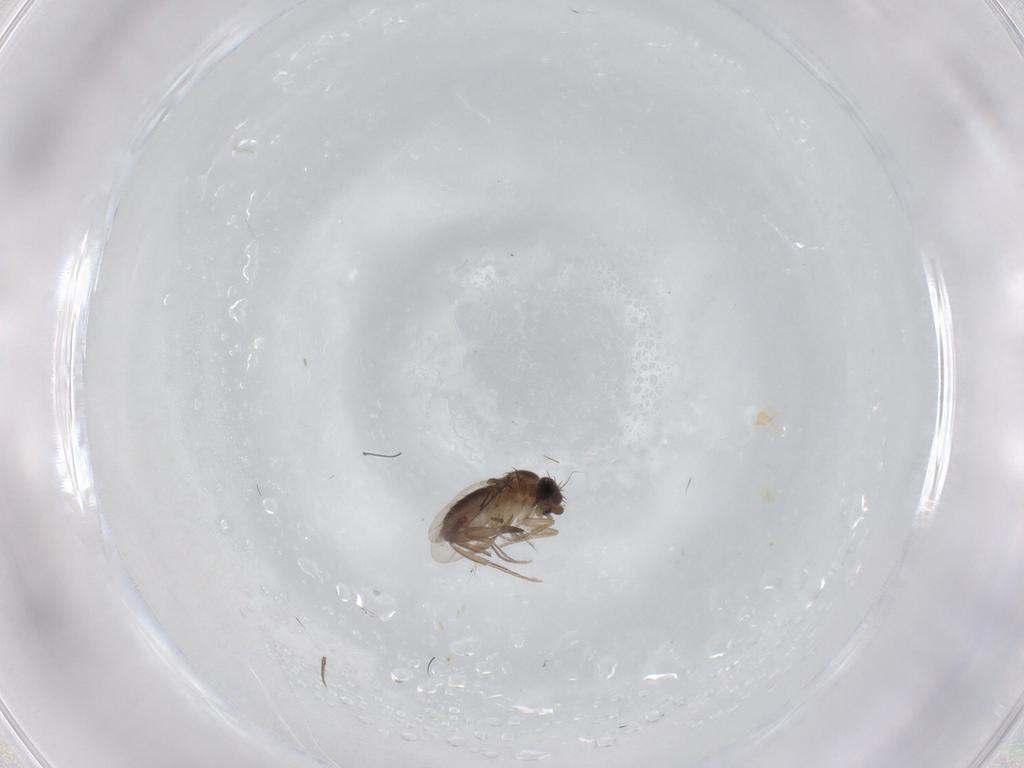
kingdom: Animalia
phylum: Arthropoda
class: Insecta
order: Diptera
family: Phoridae
